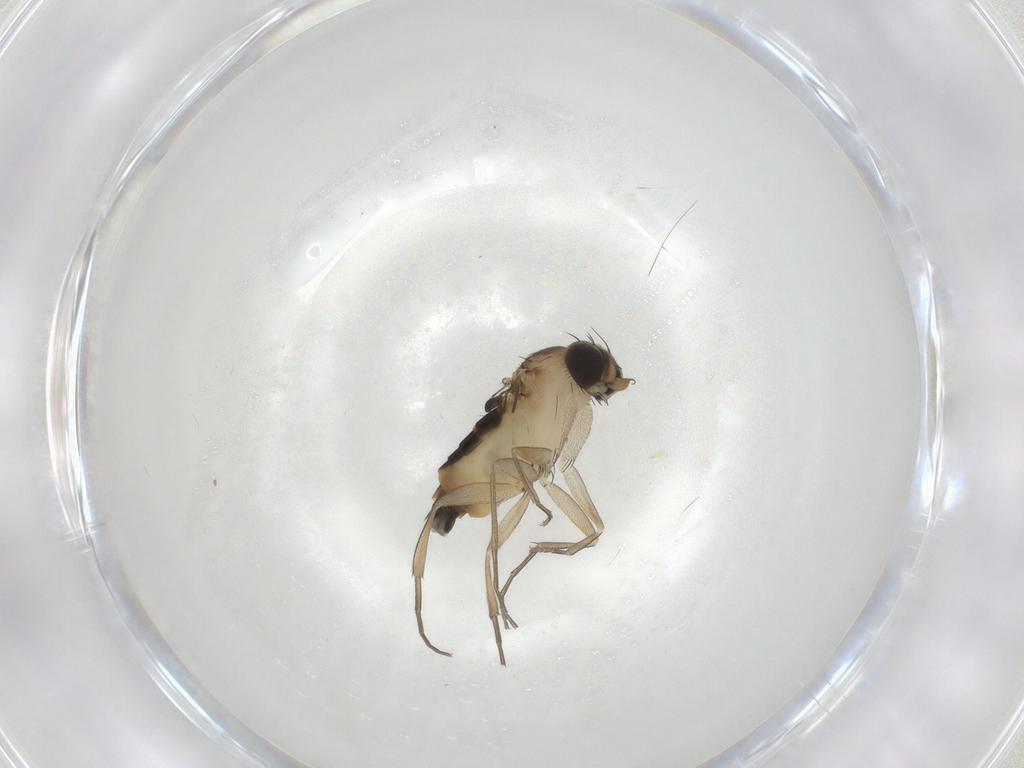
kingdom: Animalia
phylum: Arthropoda
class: Insecta
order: Diptera
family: Phoridae
